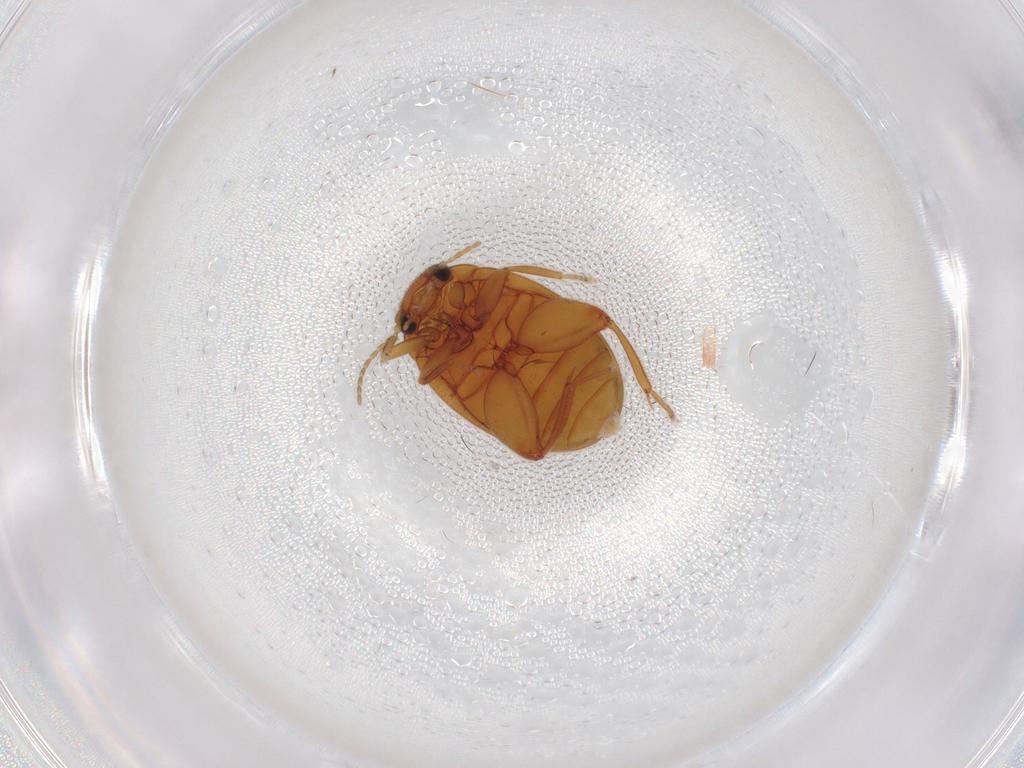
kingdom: Animalia
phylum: Arthropoda
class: Insecta
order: Coleoptera
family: Scirtidae
